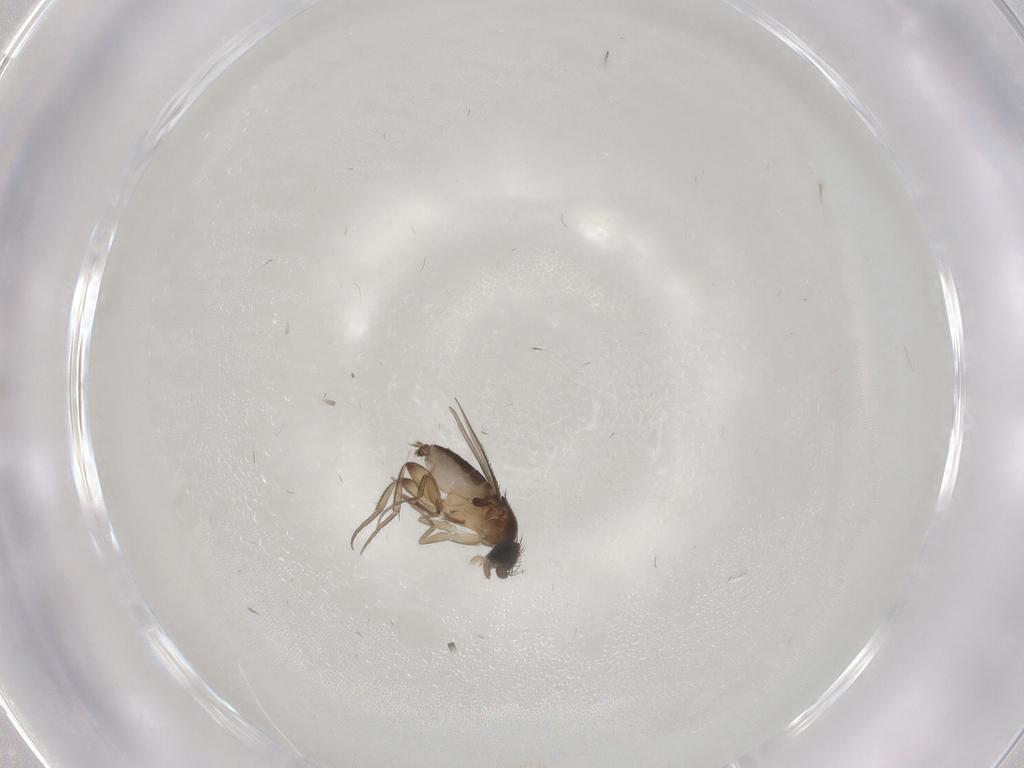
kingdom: Animalia
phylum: Arthropoda
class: Insecta
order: Diptera
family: Phoridae
